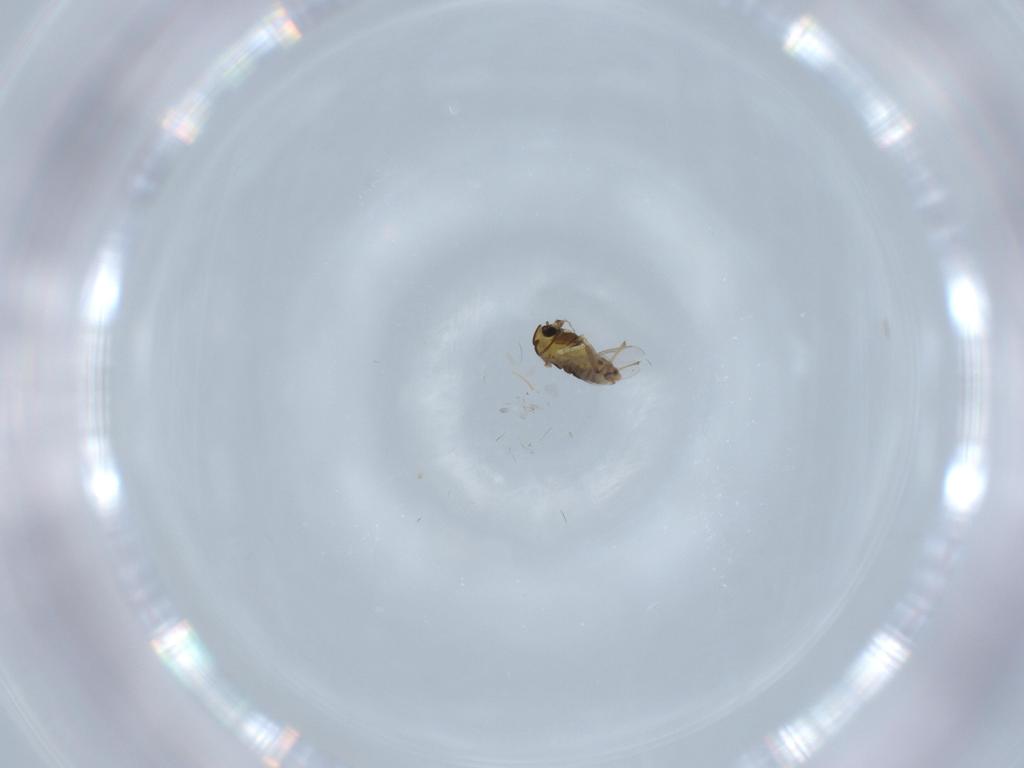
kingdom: Animalia
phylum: Arthropoda
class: Insecta
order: Diptera
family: Chironomidae
